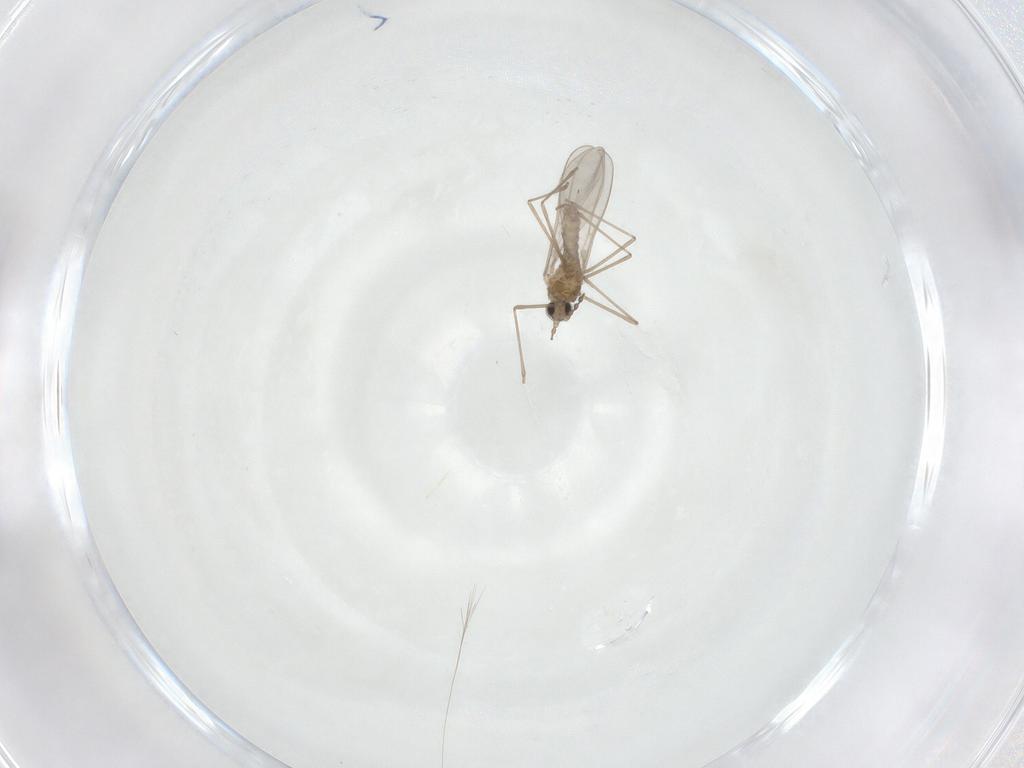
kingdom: Animalia
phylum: Arthropoda
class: Insecta
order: Diptera
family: Cecidomyiidae
